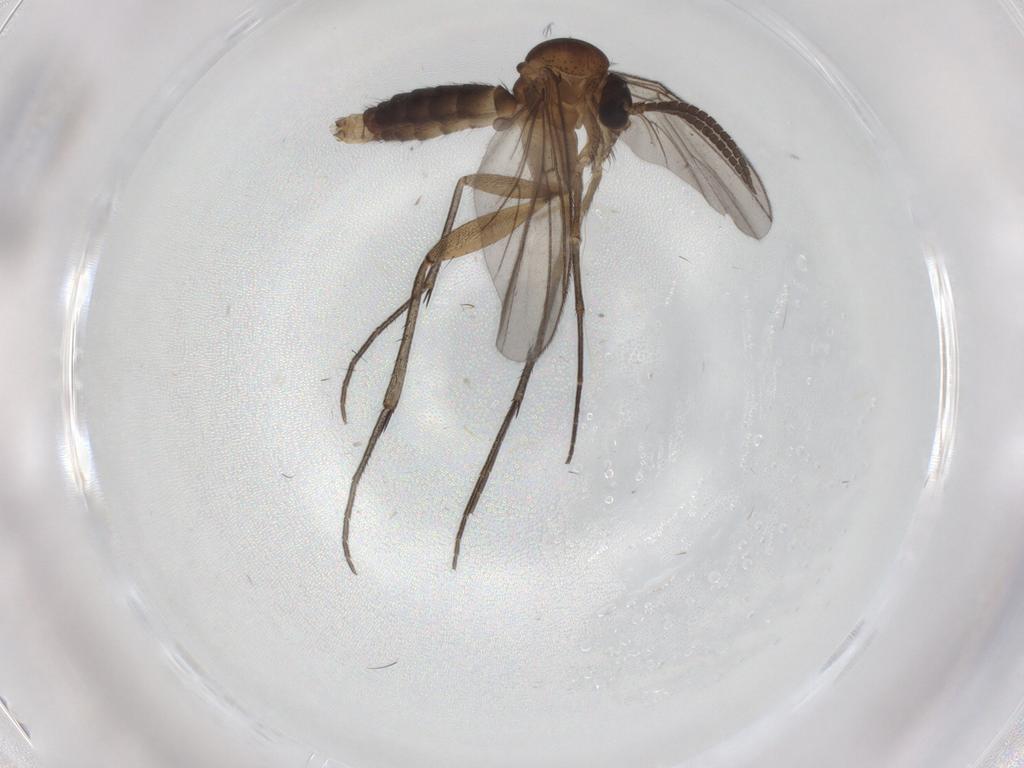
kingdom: Animalia
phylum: Arthropoda
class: Insecta
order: Diptera
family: Mycetophilidae
